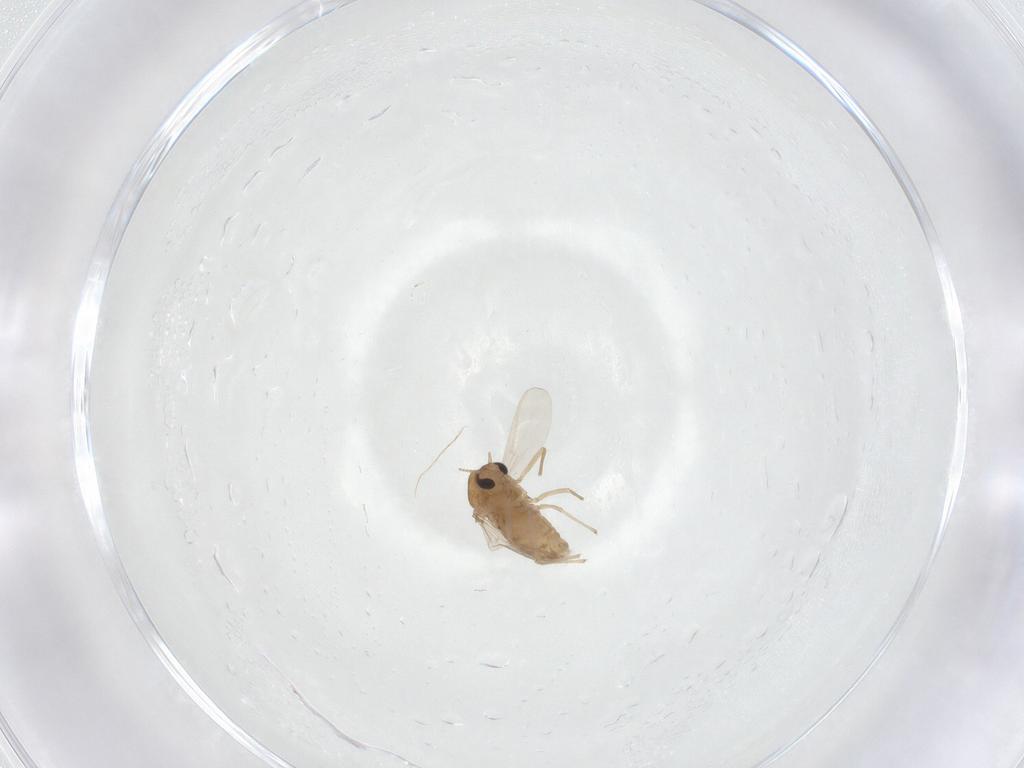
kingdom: Animalia
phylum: Arthropoda
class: Insecta
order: Diptera
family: Chironomidae
